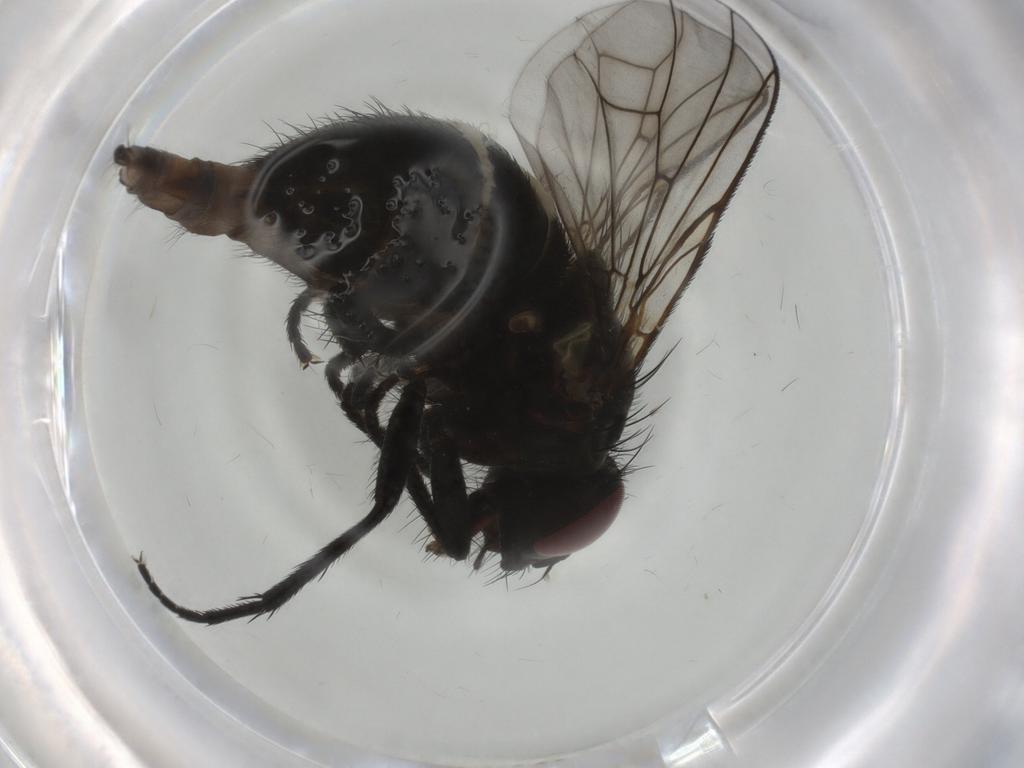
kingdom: Animalia
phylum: Arthropoda
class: Insecta
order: Diptera
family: Muscidae
